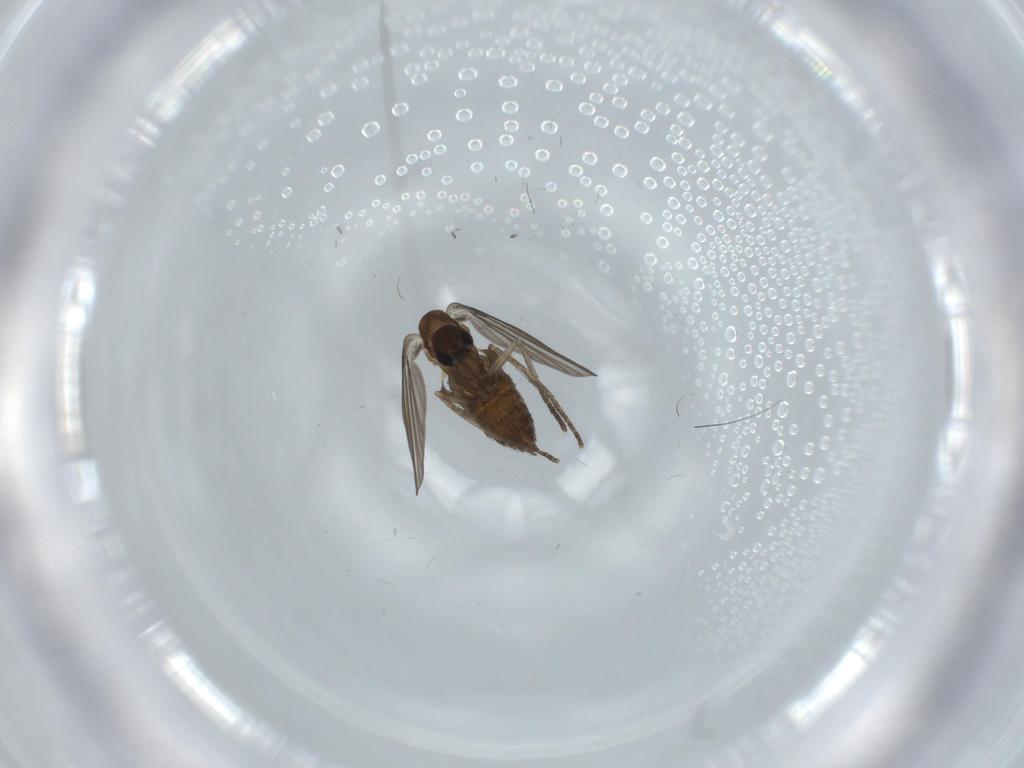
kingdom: Animalia
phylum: Arthropoda
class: Insecta
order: Diptera
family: Psychodidae
